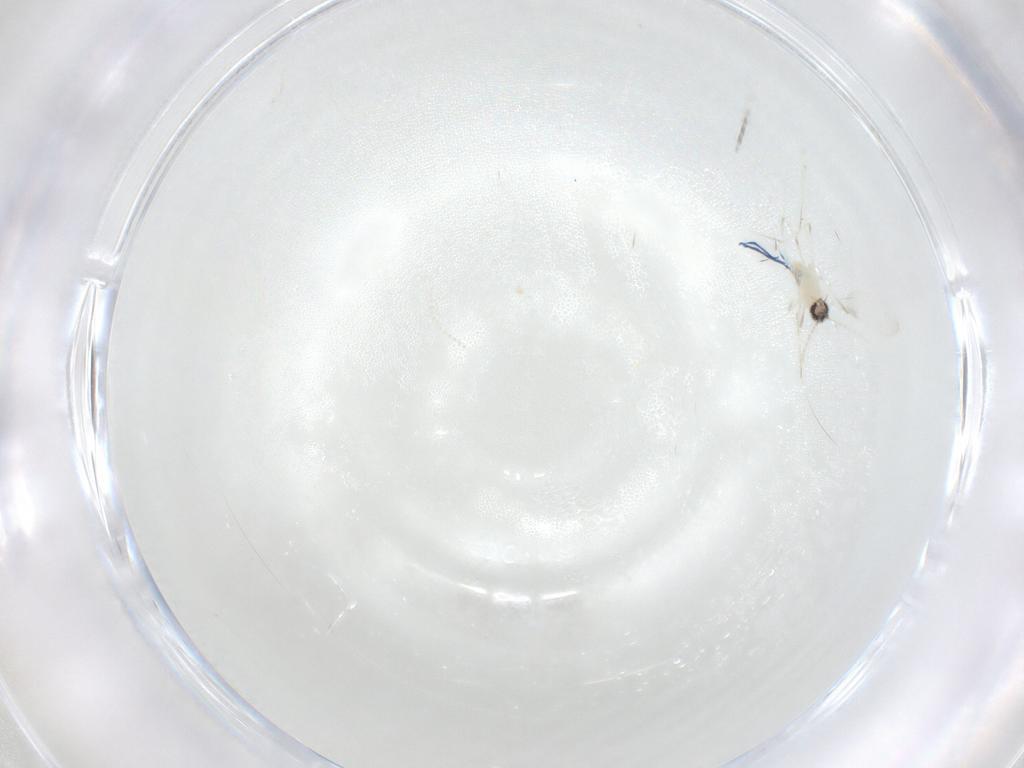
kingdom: Animalia
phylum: Arthropoda
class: Insecta
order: Diptera
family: Cecidomyiidae
